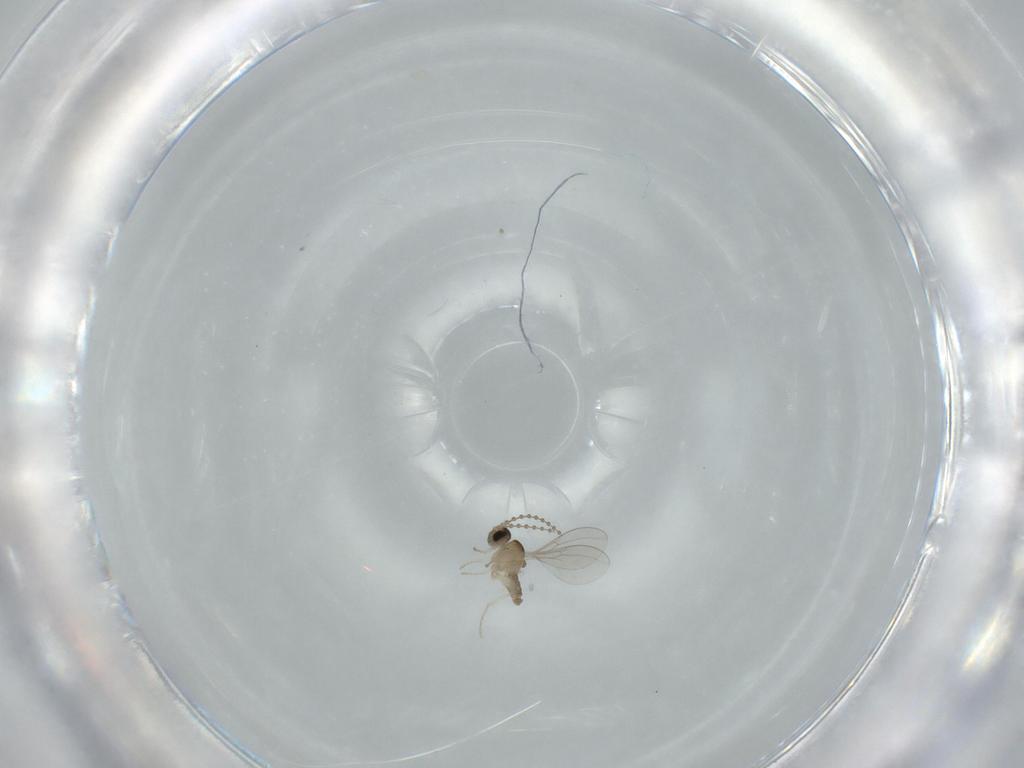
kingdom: Animalia
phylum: Arthropoda
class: Insecta
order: Diptera
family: Cecidomyiidae
